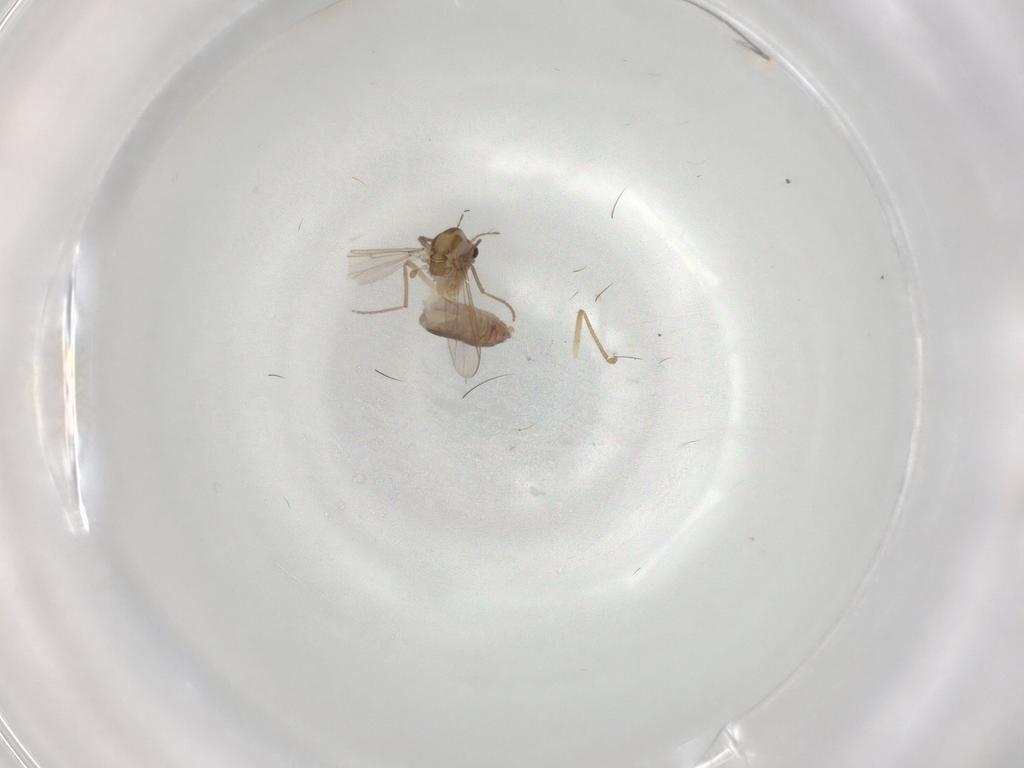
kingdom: Animalia
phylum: Arthropoda
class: Insecta
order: Diptera
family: Chironomidae
